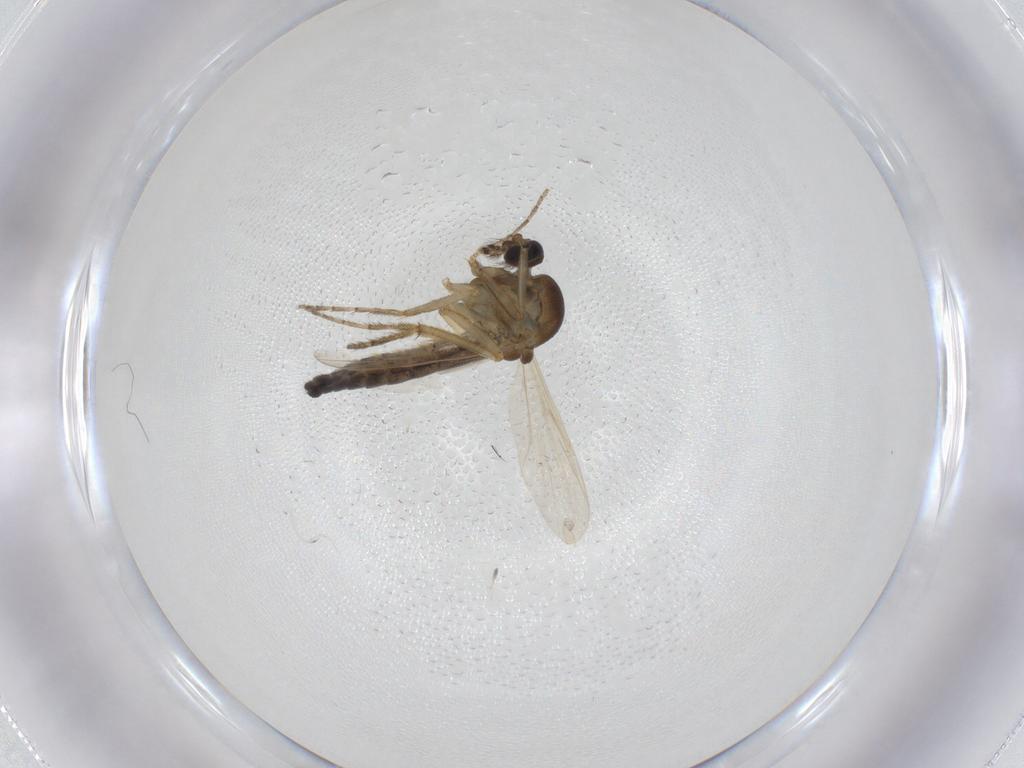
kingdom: Animalia
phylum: Arthropoda
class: Insecta
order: Diptera
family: Ceratopogonidae
